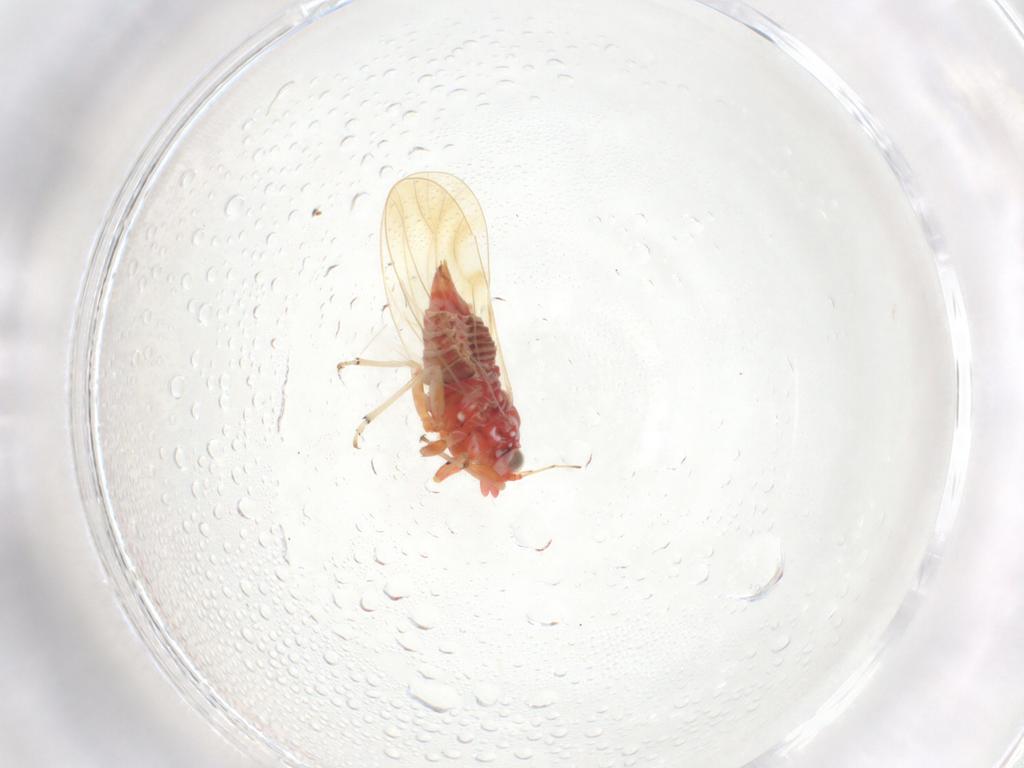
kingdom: Animalia
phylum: Arthropoda
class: Insecta
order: Hemiptera
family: Psyllidae
